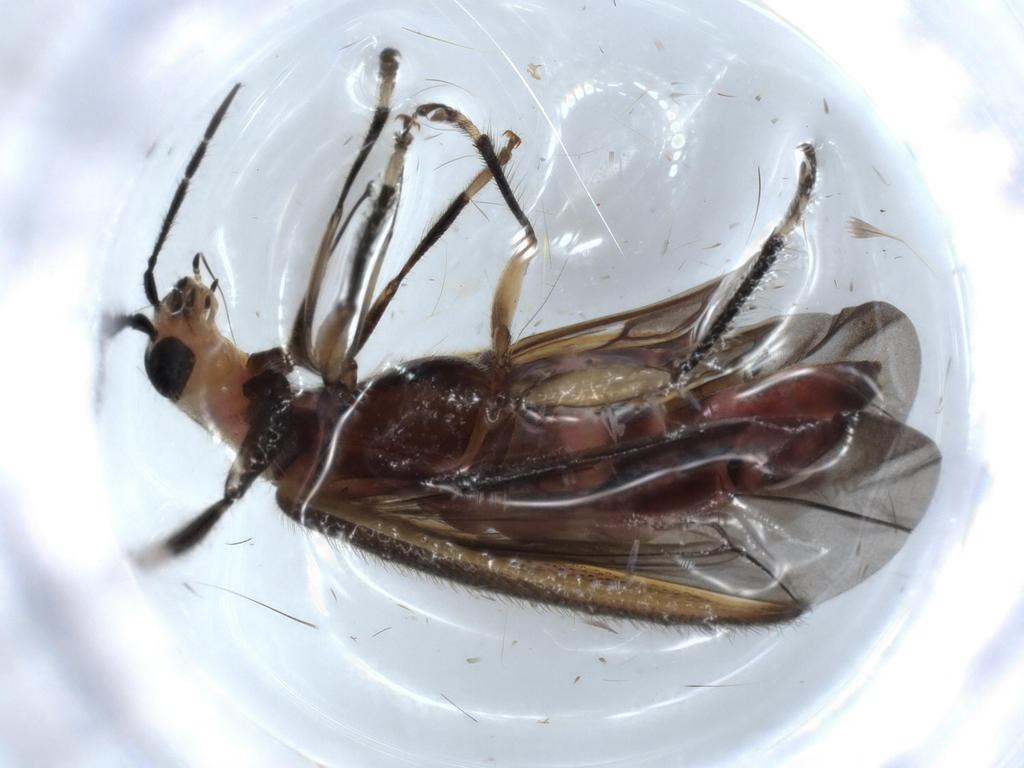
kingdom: Animalia
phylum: Arthropoda
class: Insecta
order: Coleoptera
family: Cleridae
